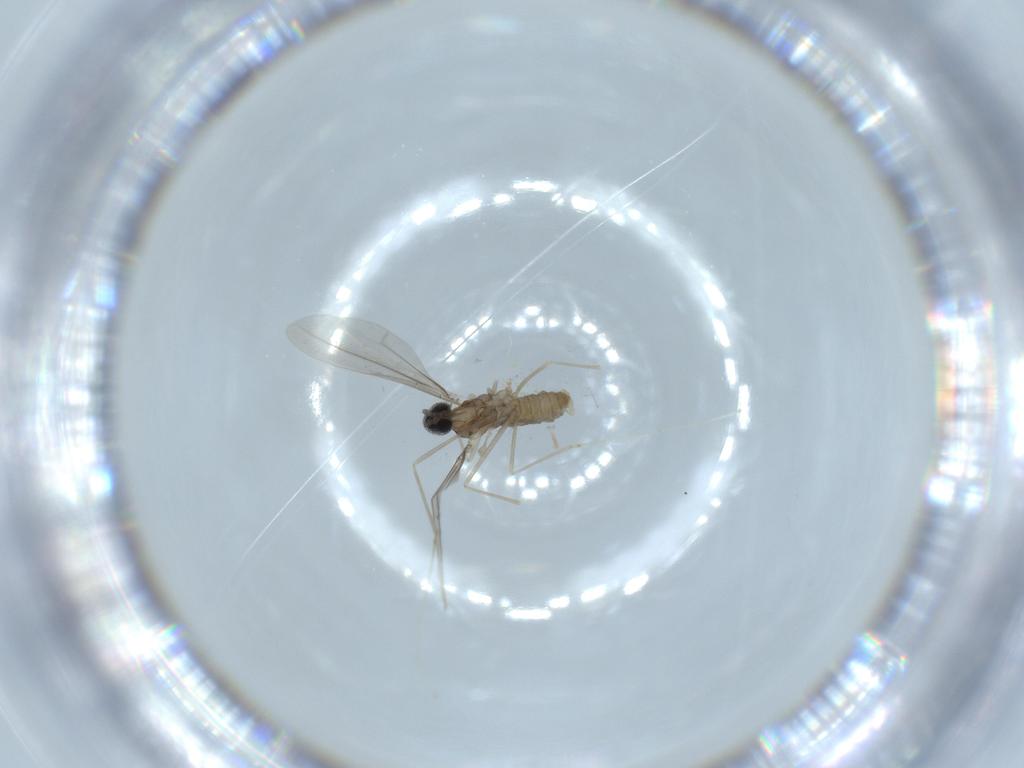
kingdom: Animalia
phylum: Arthropoda
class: Insecta
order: Diptera
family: Cecidomyiidae
